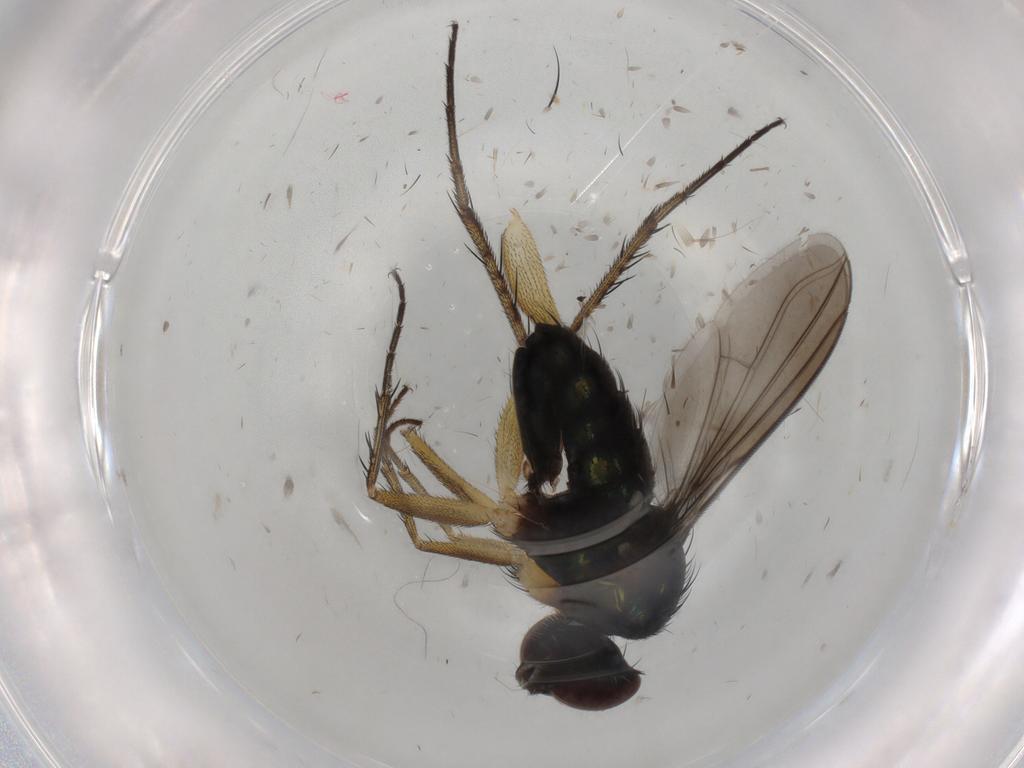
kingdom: Animalia
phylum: Arthropoda
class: Insecta
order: Diptera
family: Dolichopodidae
